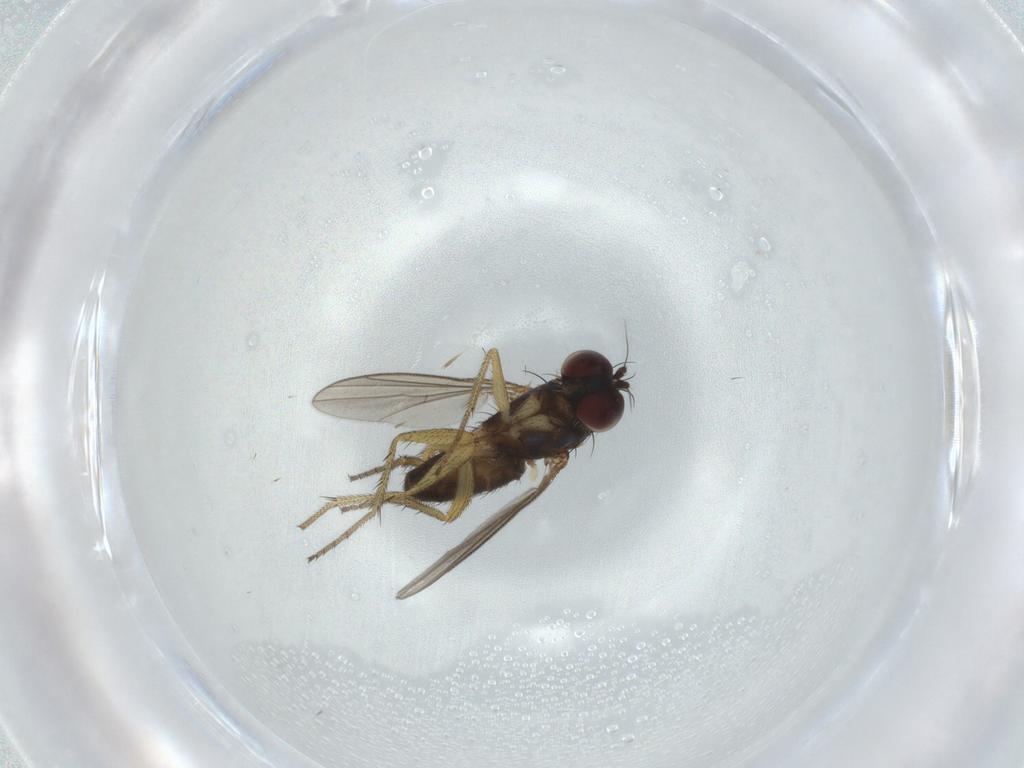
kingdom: Animalia
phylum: Arthropoda
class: Insecta
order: Diptera
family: Dolichopodidae
